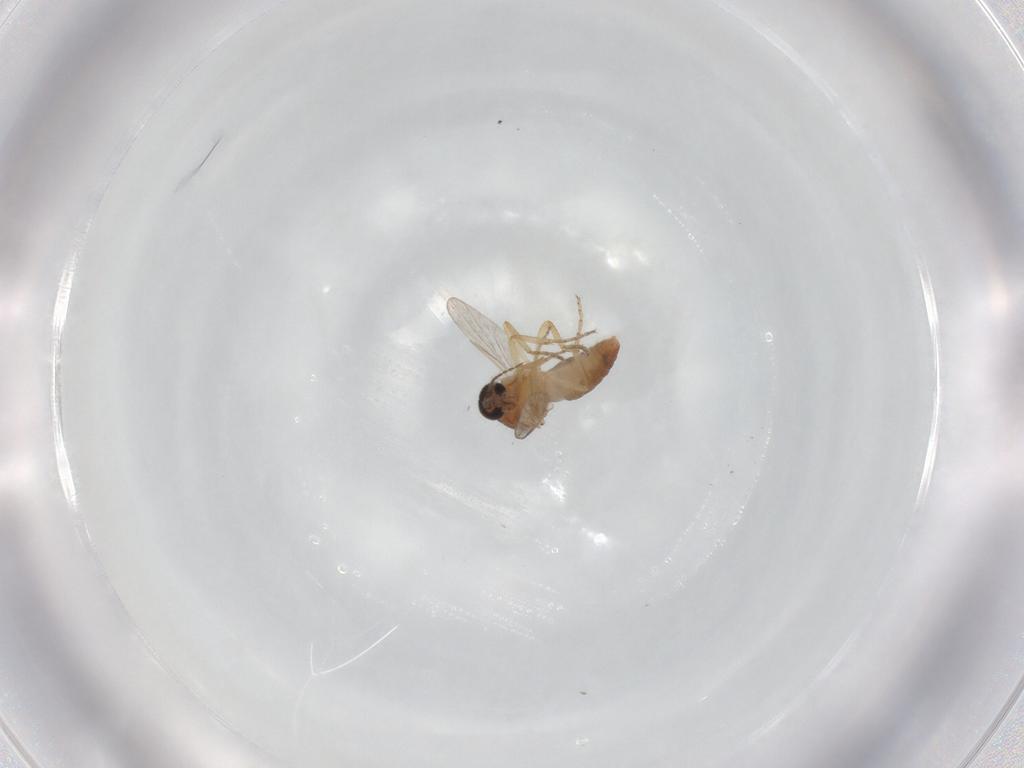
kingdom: Animalia
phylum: Arthropoda
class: Insecta
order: Diptera
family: Ceratopogonidae
